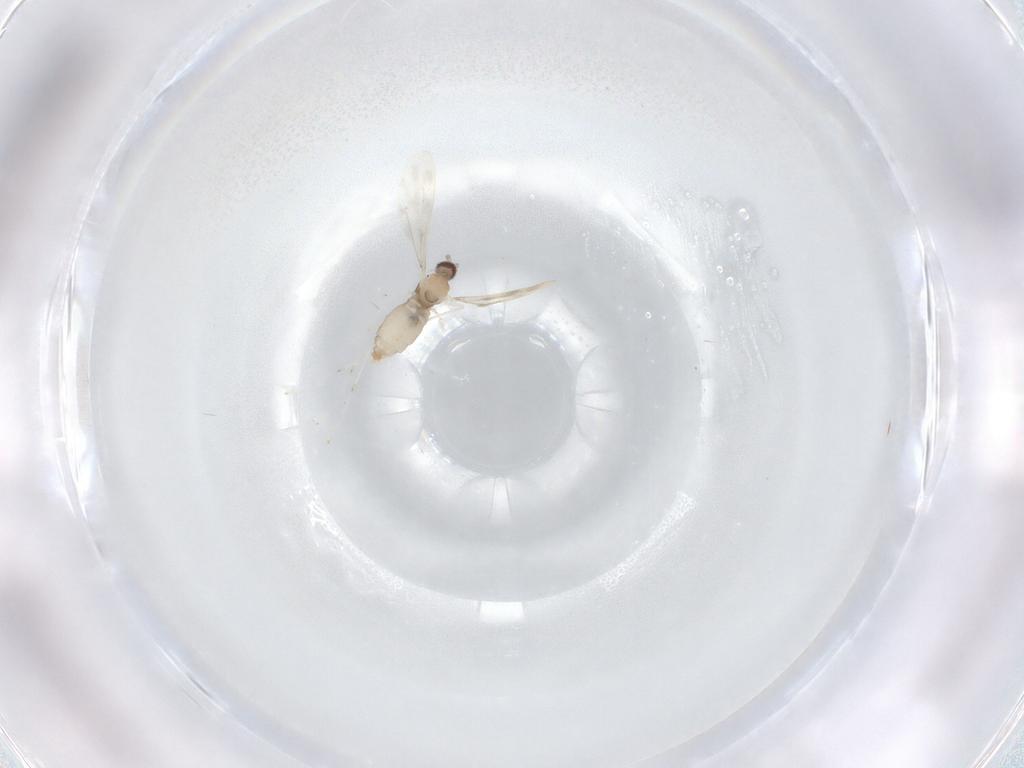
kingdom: Animalia
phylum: Arthropoda
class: Insecta
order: Diptera
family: Cecidomyiidae
